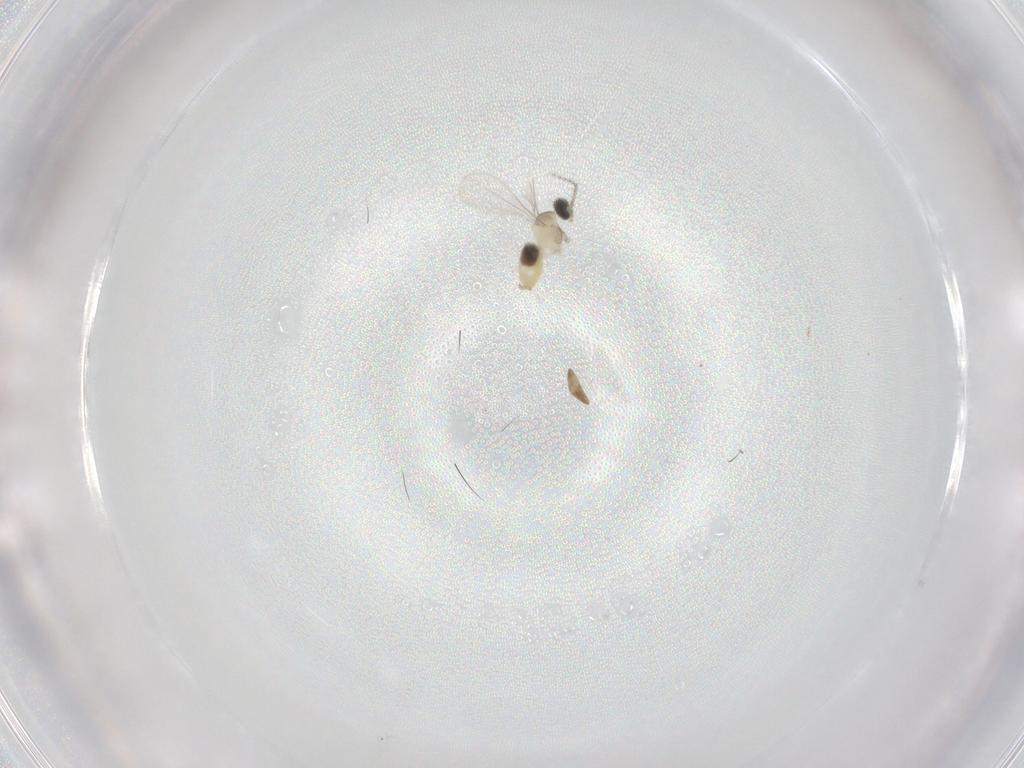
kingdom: Animalia
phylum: Arthropoda
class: Insecta
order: Diptera
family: Cecidomyiidae
